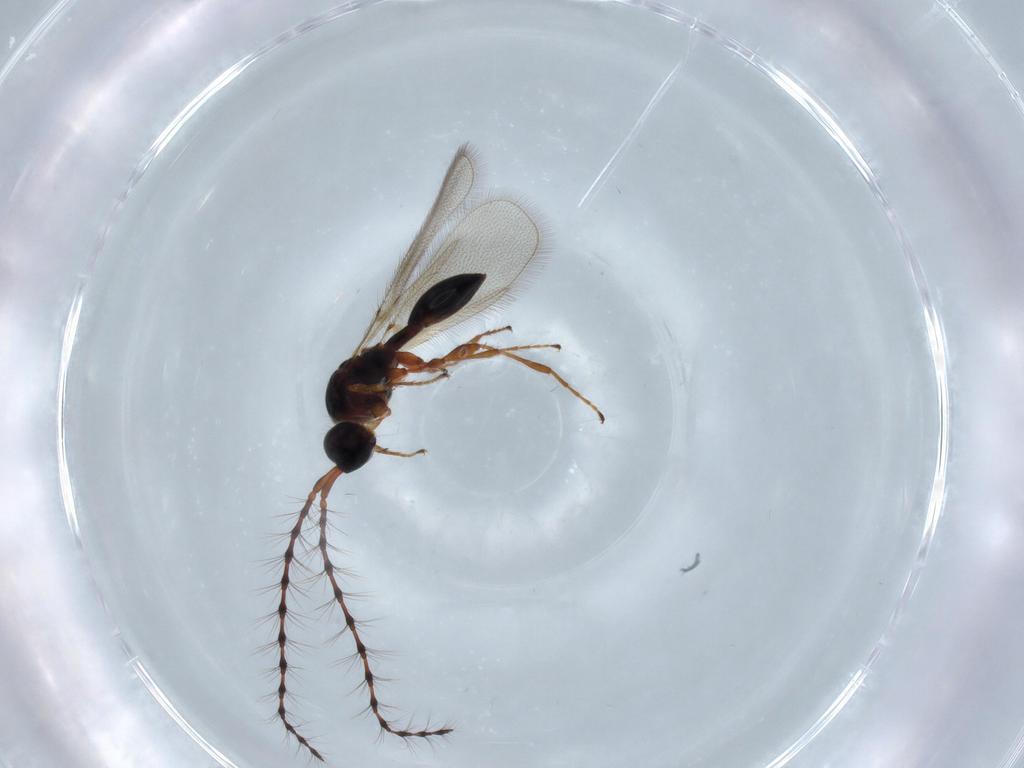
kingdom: Animalia
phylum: Arthropoda
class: Insecta
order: Hymenoptera
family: Diapriidae
